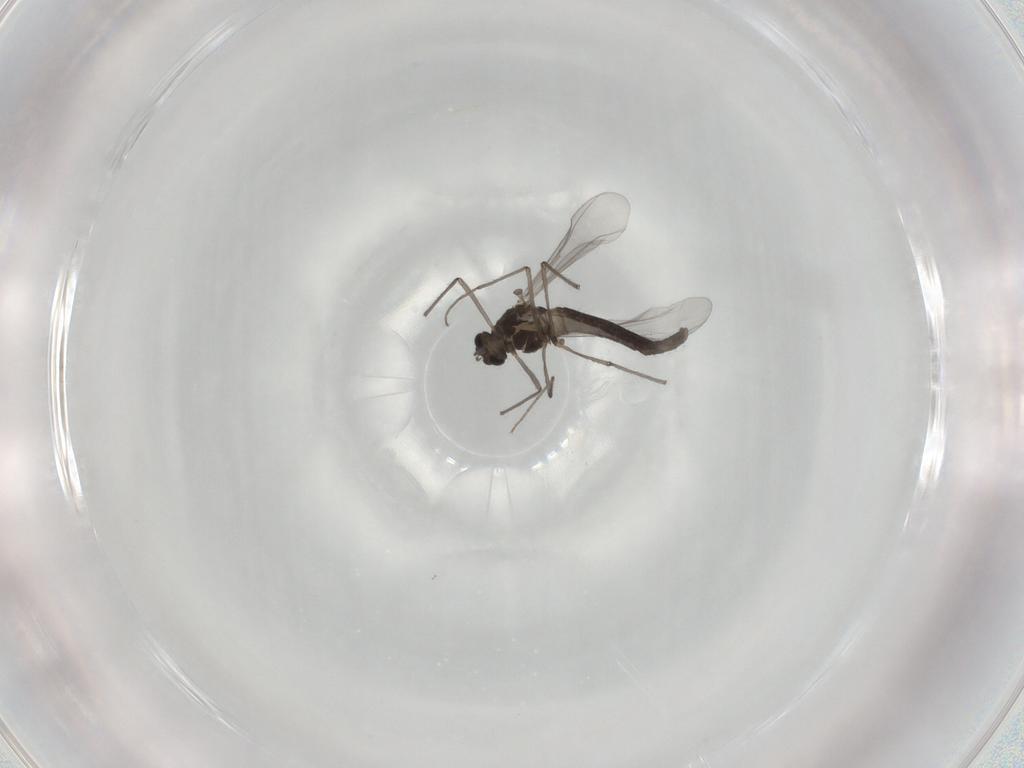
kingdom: Animalia
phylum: Arthropoda
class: Insecta
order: Diptera
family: Chironomidae
